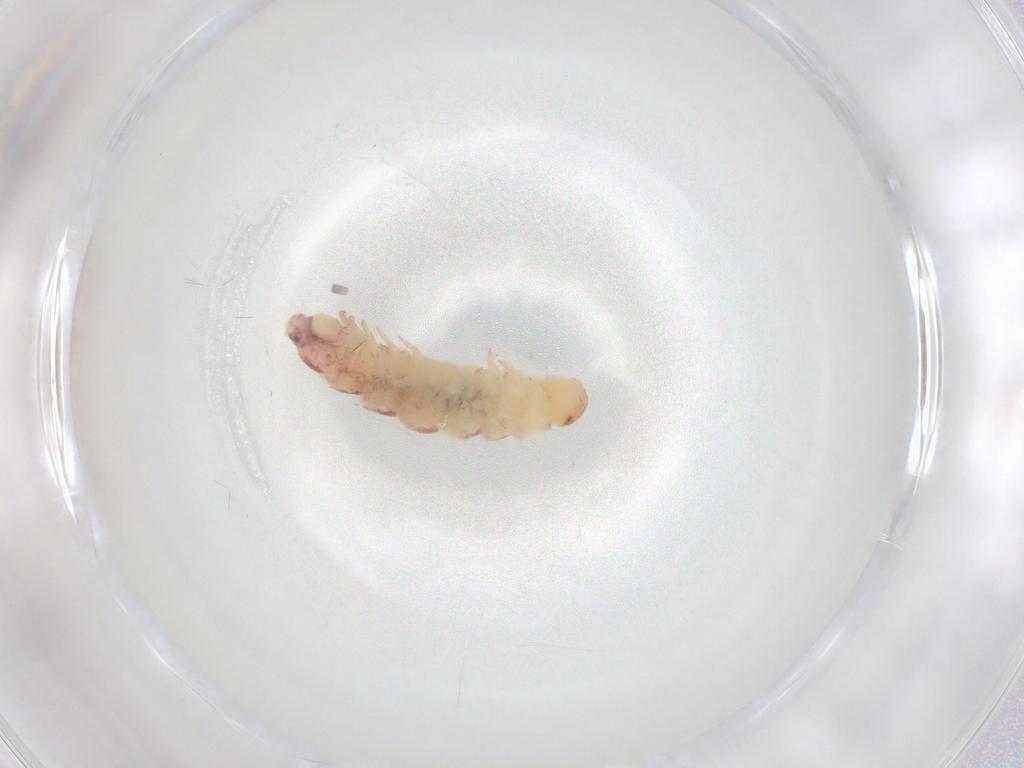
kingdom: Animalia
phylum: Arthropoda
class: Diplopoda
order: Polyxenida
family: Polyxenidae
